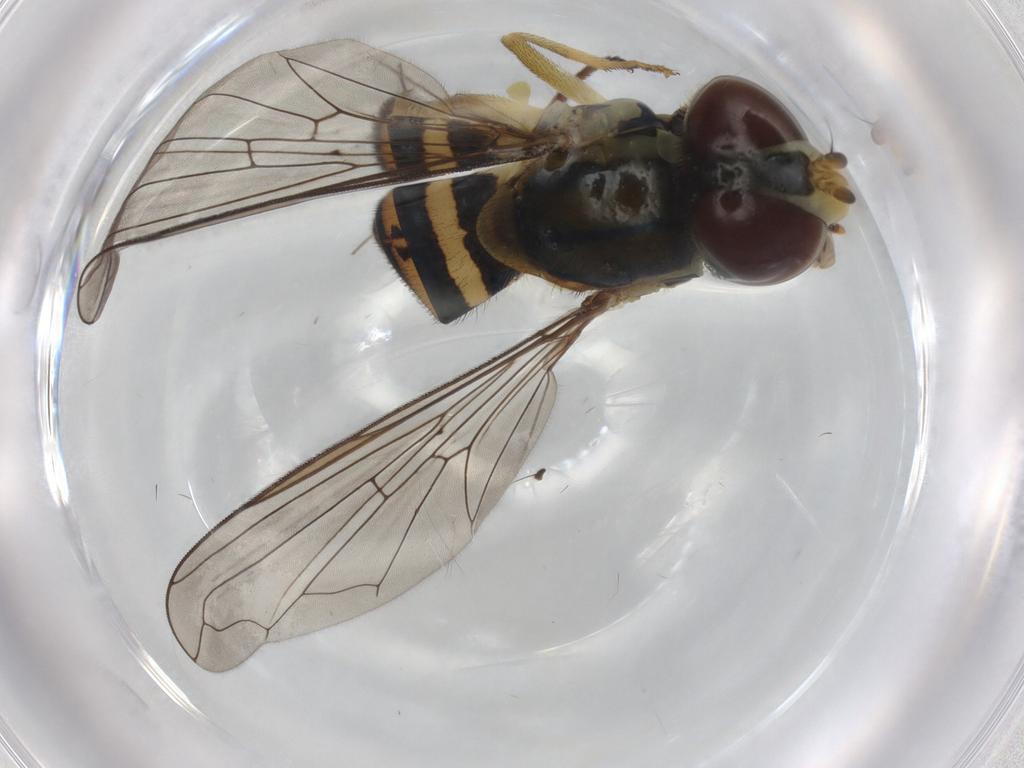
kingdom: Animalia
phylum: Arthropoda
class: Insecta
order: Diptera
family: Syrphidae
